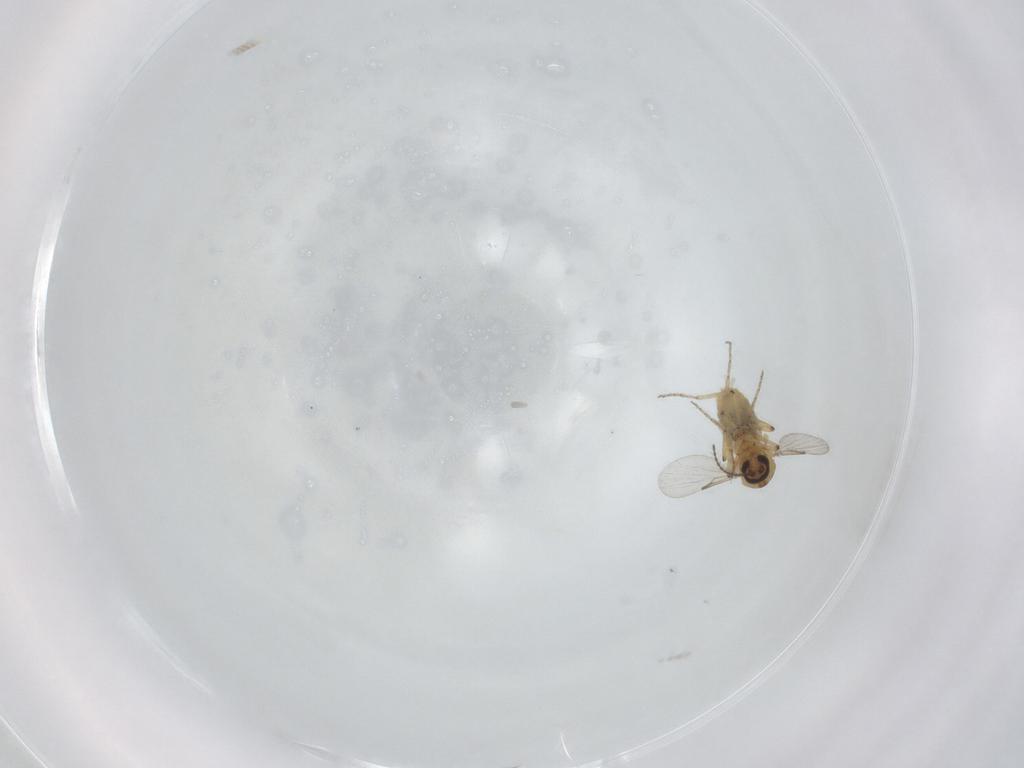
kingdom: Animalia
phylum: Arthropoda
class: Insecta
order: Diptera
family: Ceratopogonidae
